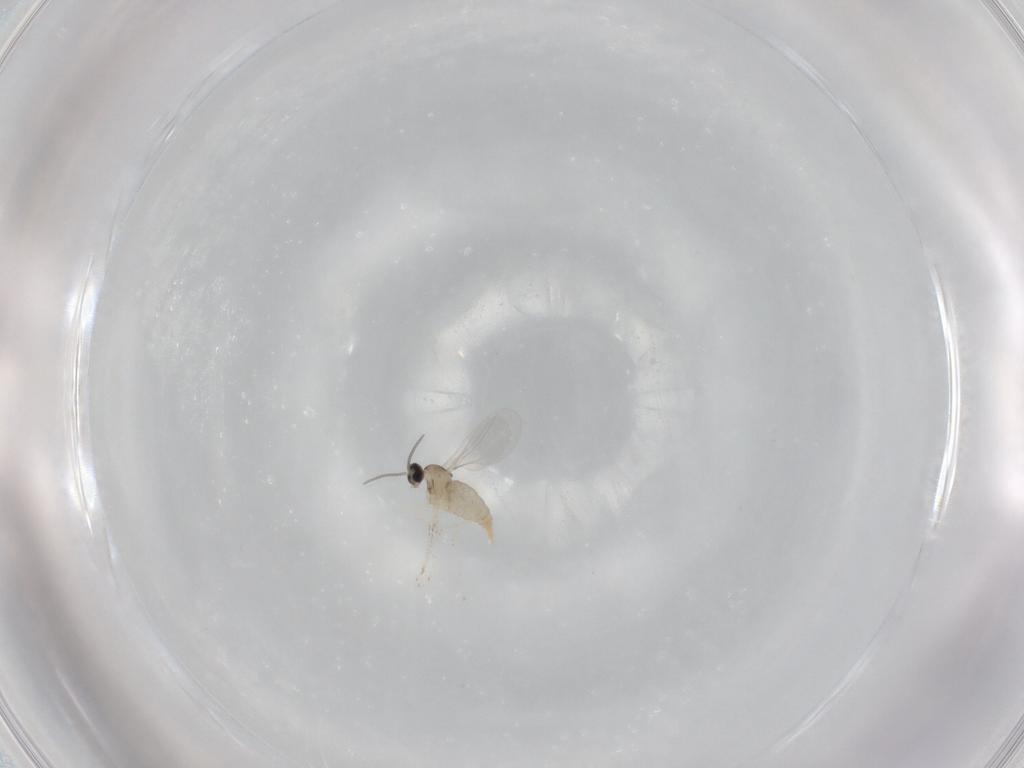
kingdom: Animalia
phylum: Arthropoda
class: Insecta
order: Diptera
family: Cecidomyiidae
